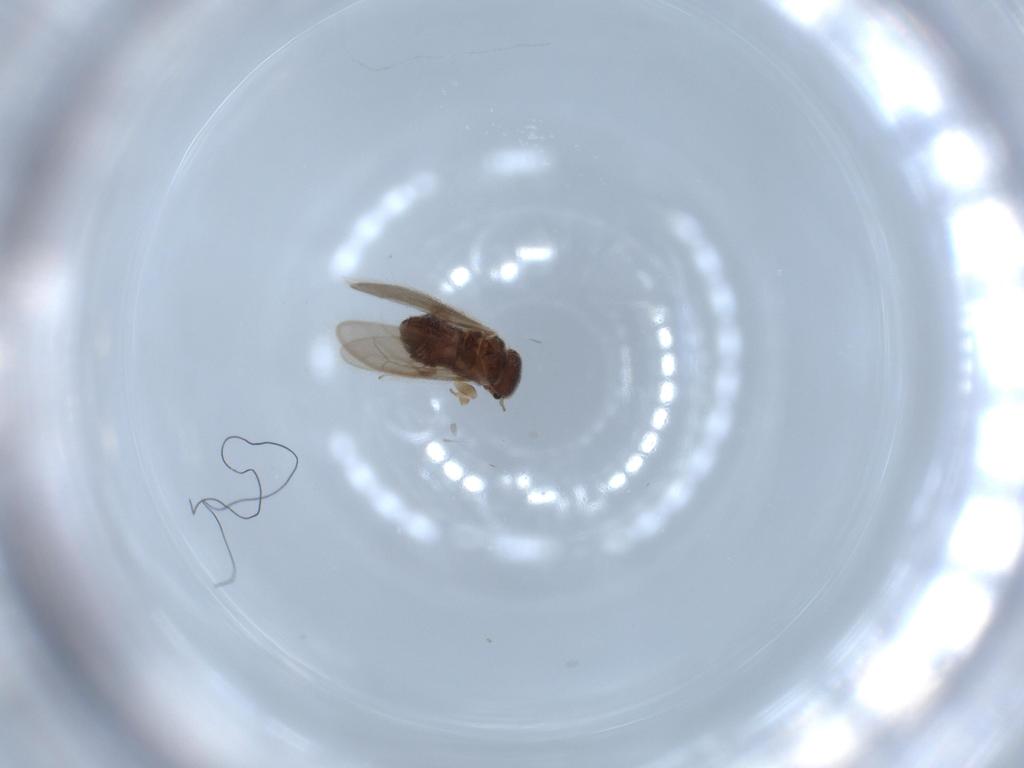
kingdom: Animalia
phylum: Arthropoda
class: Insecta
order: Psocodea
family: Archipsocidae
